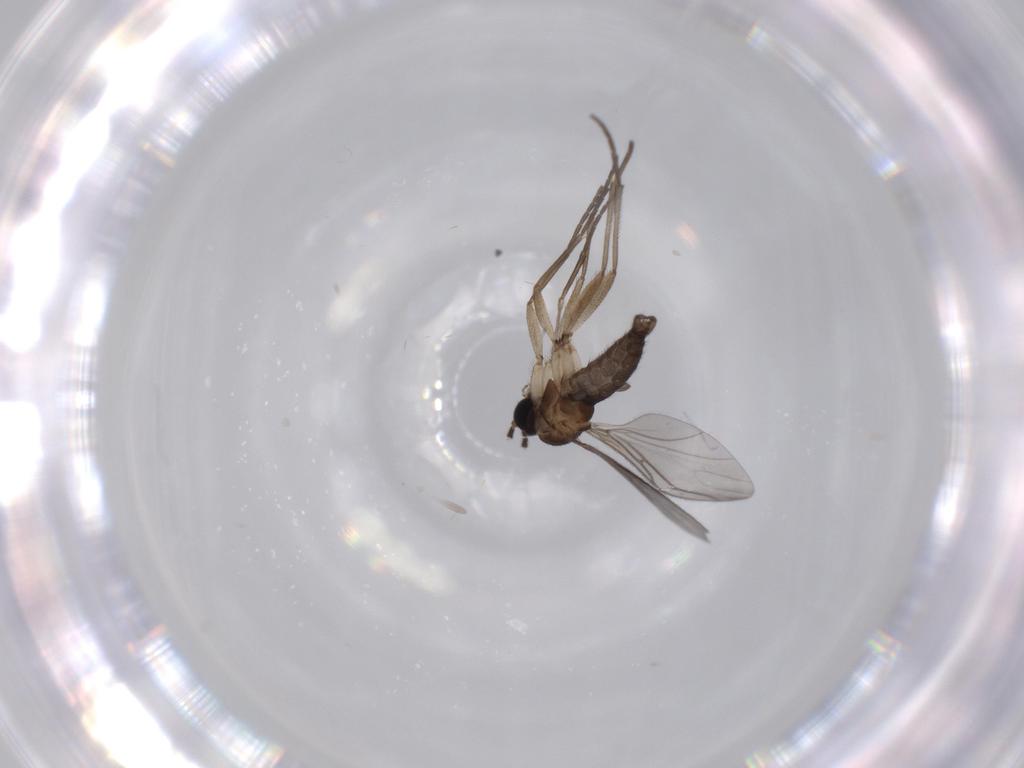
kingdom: Animalia
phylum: Arthropoda
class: Insecta
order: Diptera
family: Sciaridae
